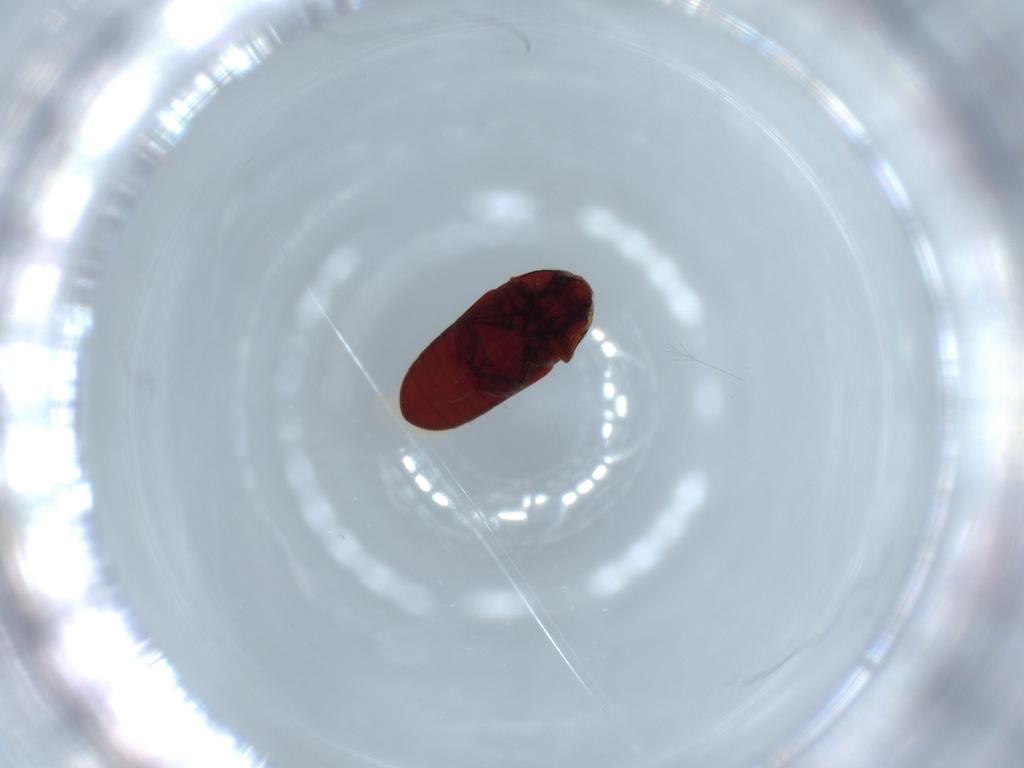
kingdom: Animalia
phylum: Arthropoda
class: Insecta
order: Coleoptera
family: Throscidae
